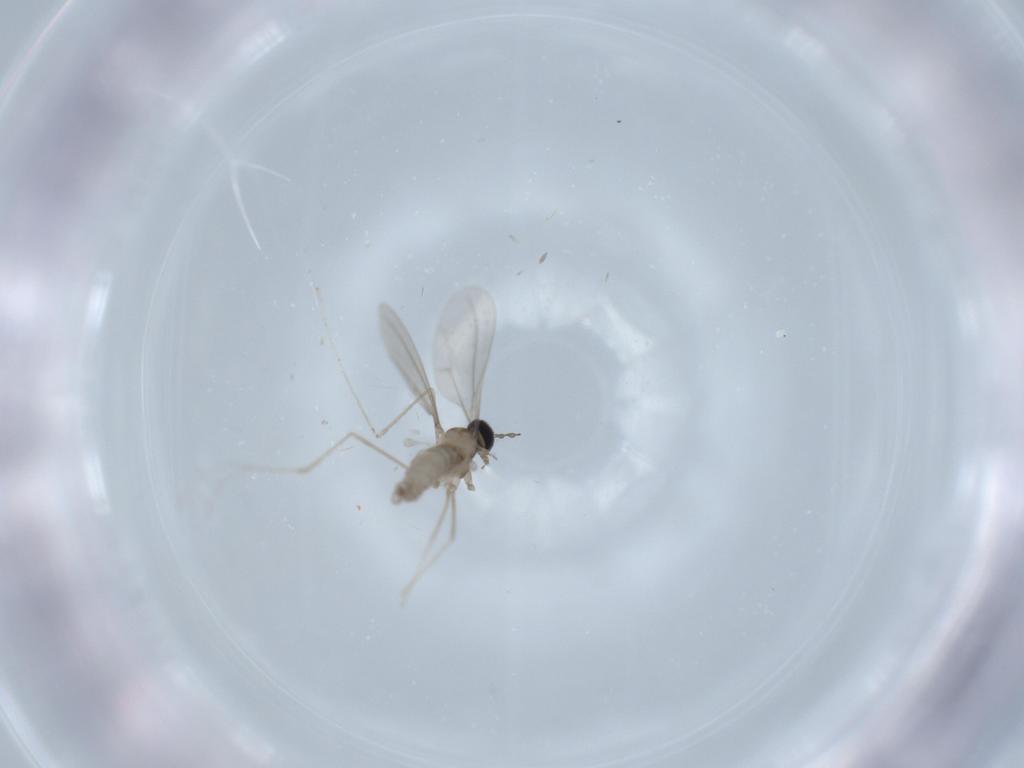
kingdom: Animalia
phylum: Arthropoda
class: Insecta
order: Diptera
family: Cecidomyiidae
